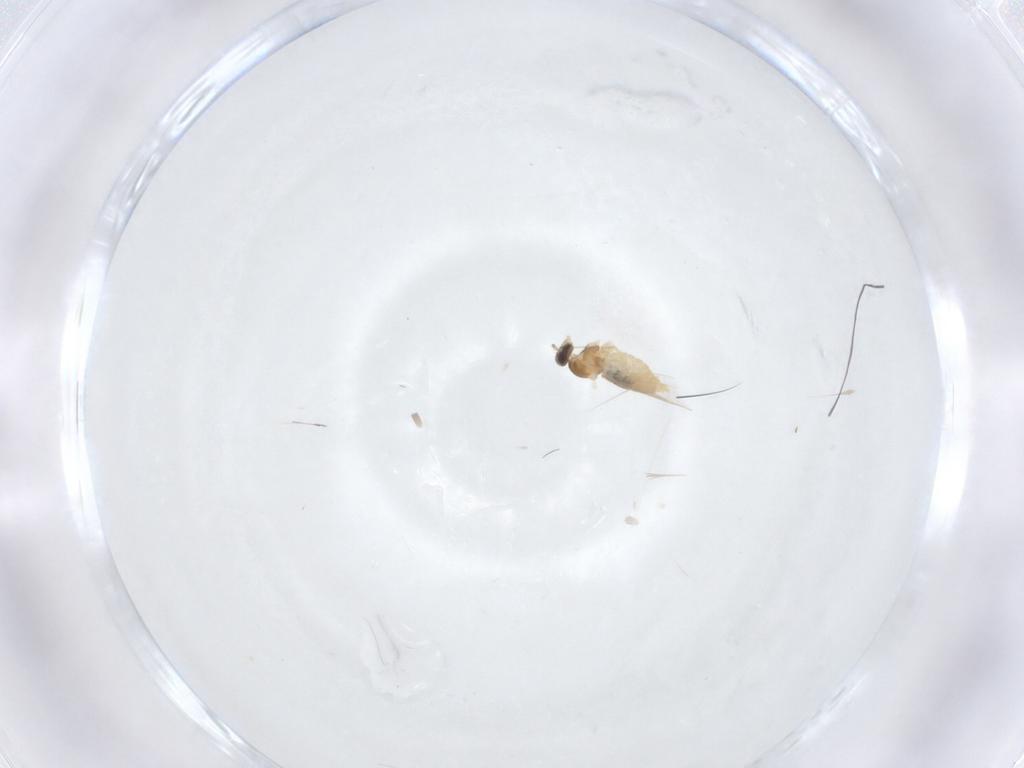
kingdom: Animalia
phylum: Arthropoda
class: Insecta
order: Diptera
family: Cecidomyiidae
